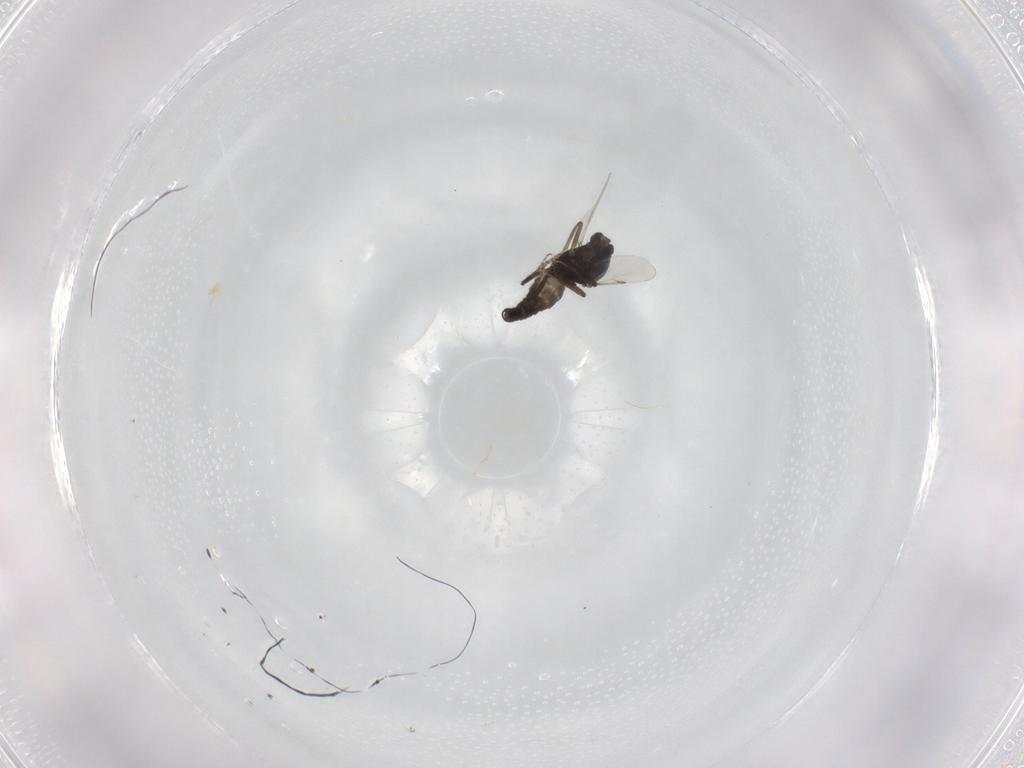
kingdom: Animalia
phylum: Arthropoda
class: Insecta
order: Diptera
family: Ceratopogonidae
